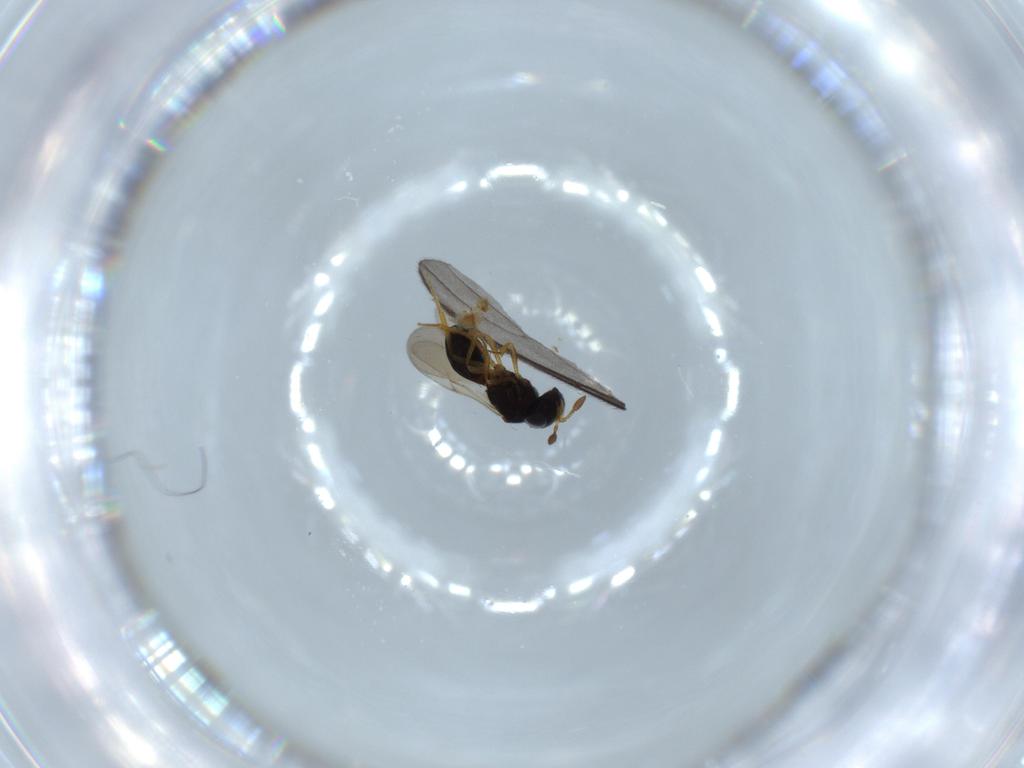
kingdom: Animalia
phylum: Arthropoda
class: Insecta
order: Hymenoptera
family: Scelionidae
